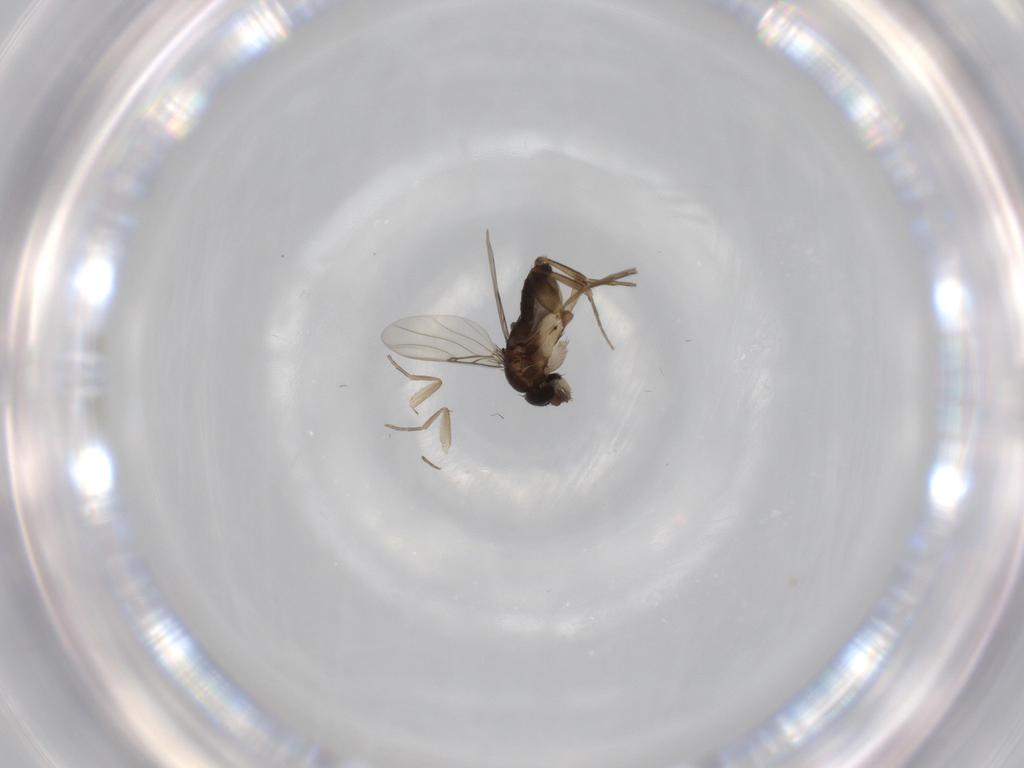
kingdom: Animalia
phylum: Arthropoda
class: Insecta
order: Diptera
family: Phoridae
